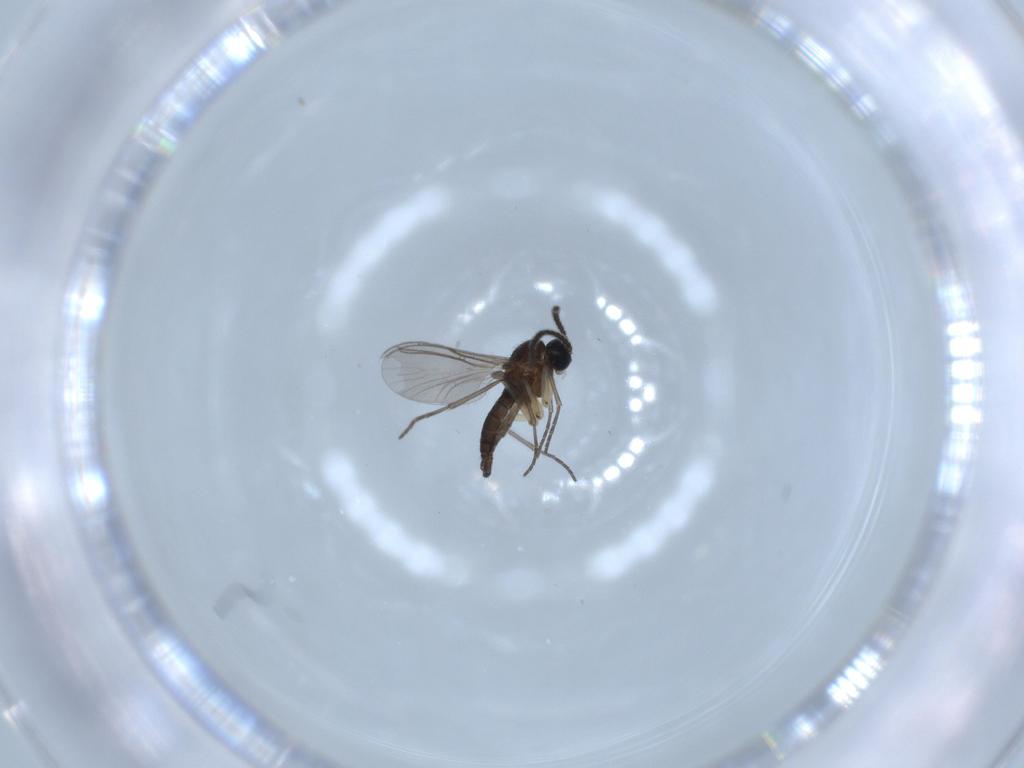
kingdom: Animalia
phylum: Arthropoda
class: Insecta
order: Diptera
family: Sciaridae
